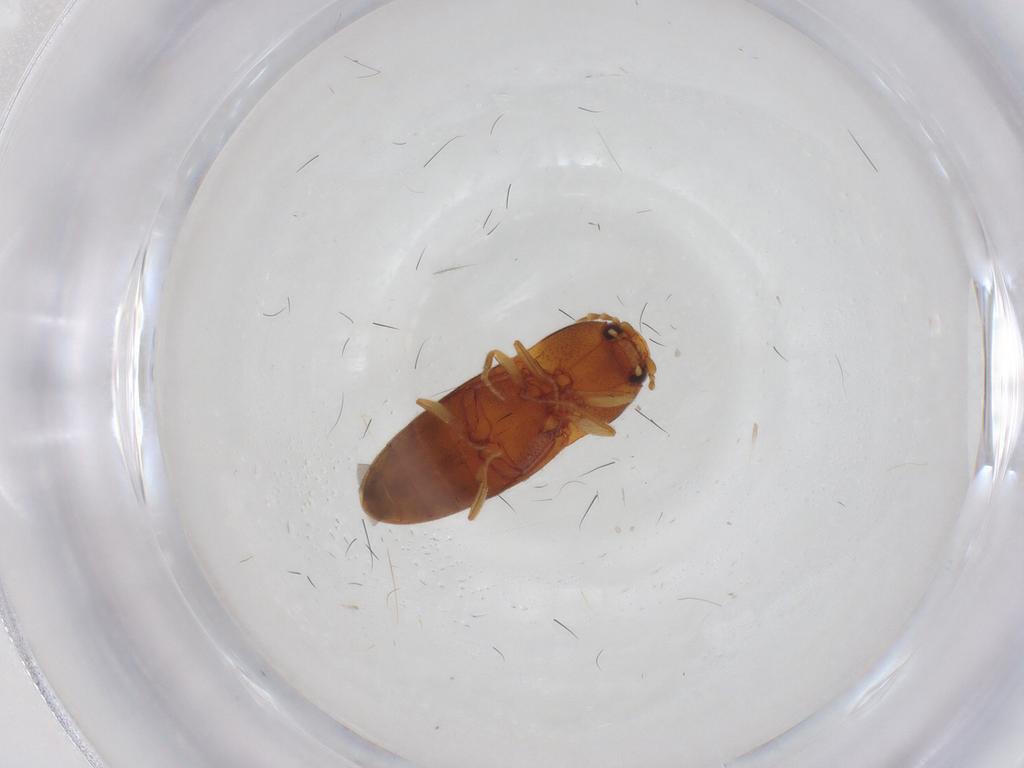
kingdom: Animalia
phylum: Arthropoda
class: Insecta
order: Coleoptera
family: Elateridae
